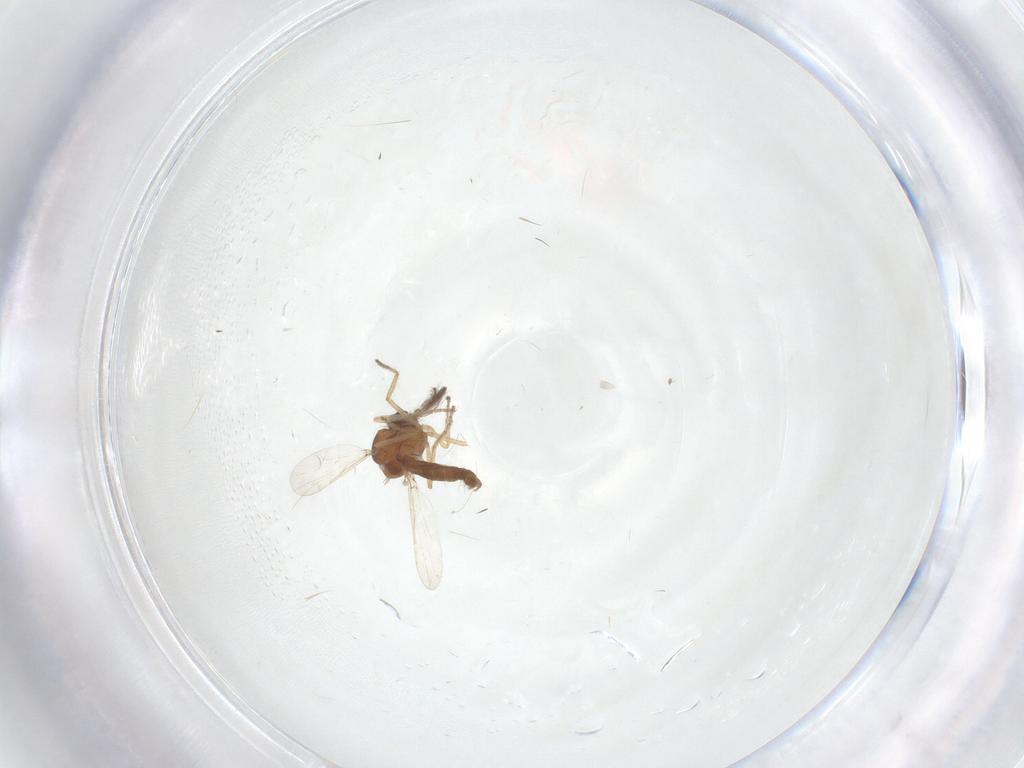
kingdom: Animalia
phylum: Arthropoda
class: Insecta
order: Diptera
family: Ceratopogonidae
